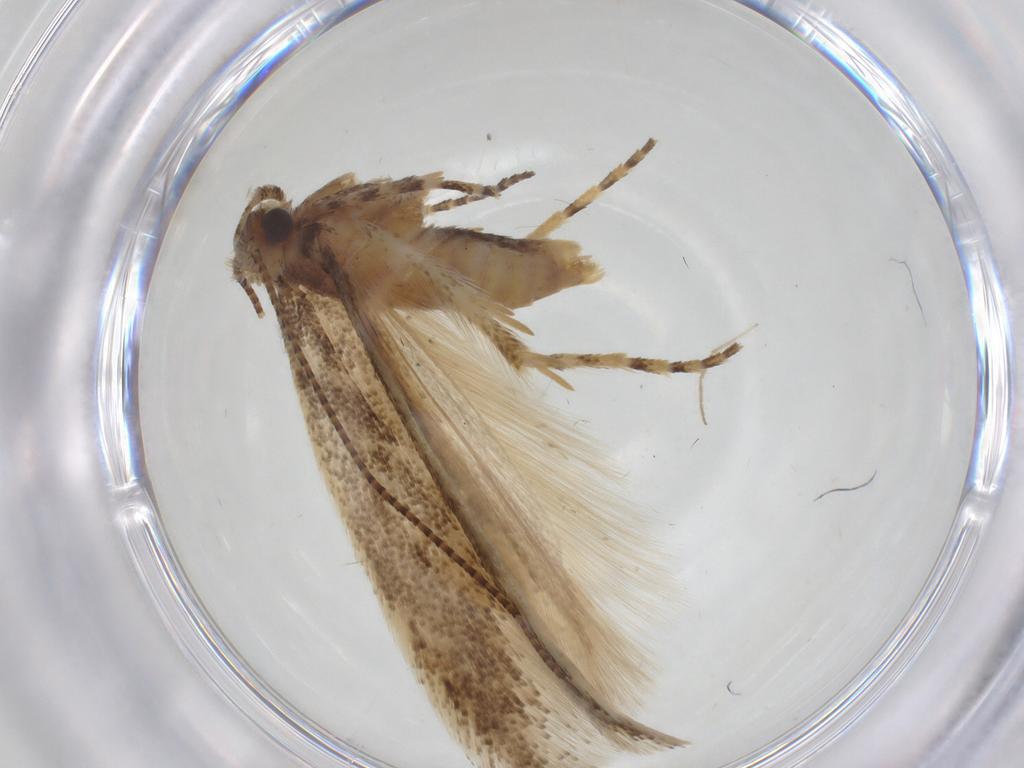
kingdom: Animalia
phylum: Arthropoda
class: Insecta
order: Lepidoptera
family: Gelechiidae
